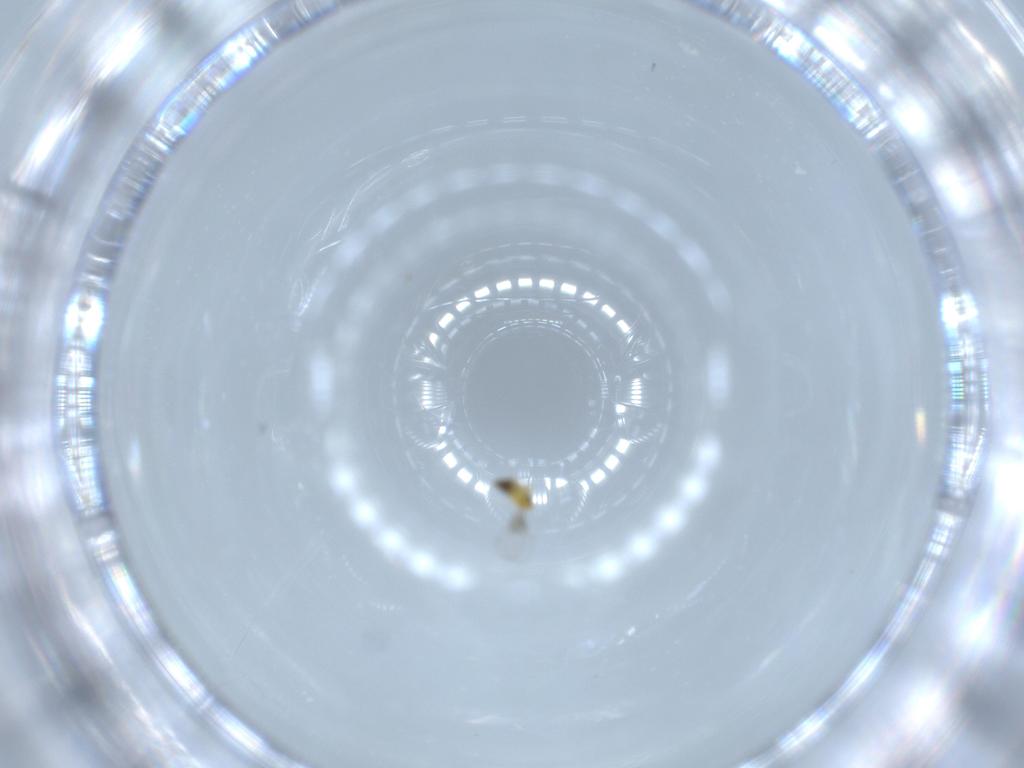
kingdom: Animalia
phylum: Arthropoda
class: Insecta
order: Hymenoptera
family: Trichogrammatidae
